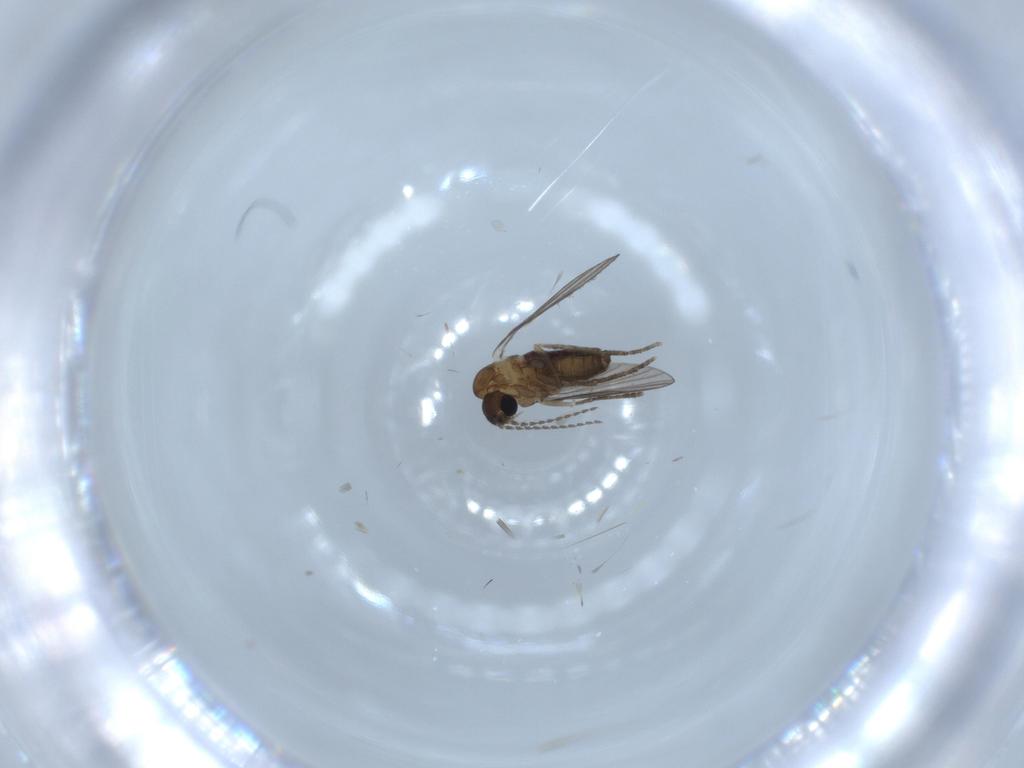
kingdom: Animalia
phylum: Arthropoda
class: Insecta
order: Diptera
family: Psychodidae
